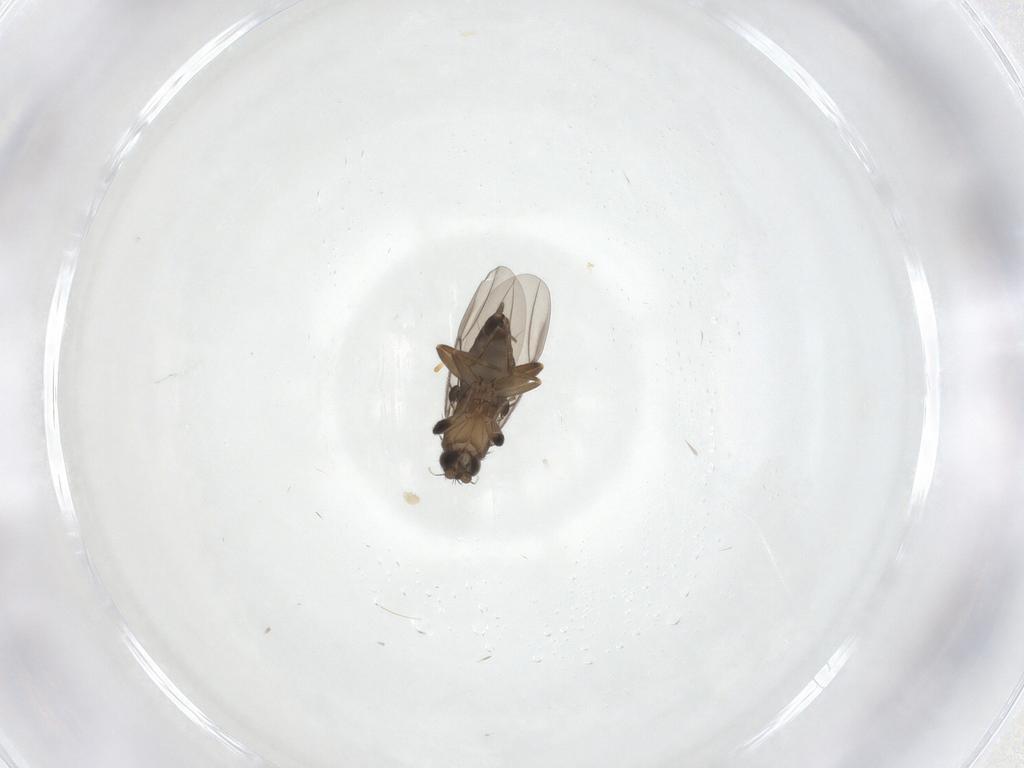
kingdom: Animalia
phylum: Arthropoda
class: Insecta
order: Diptera
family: Phoridae
